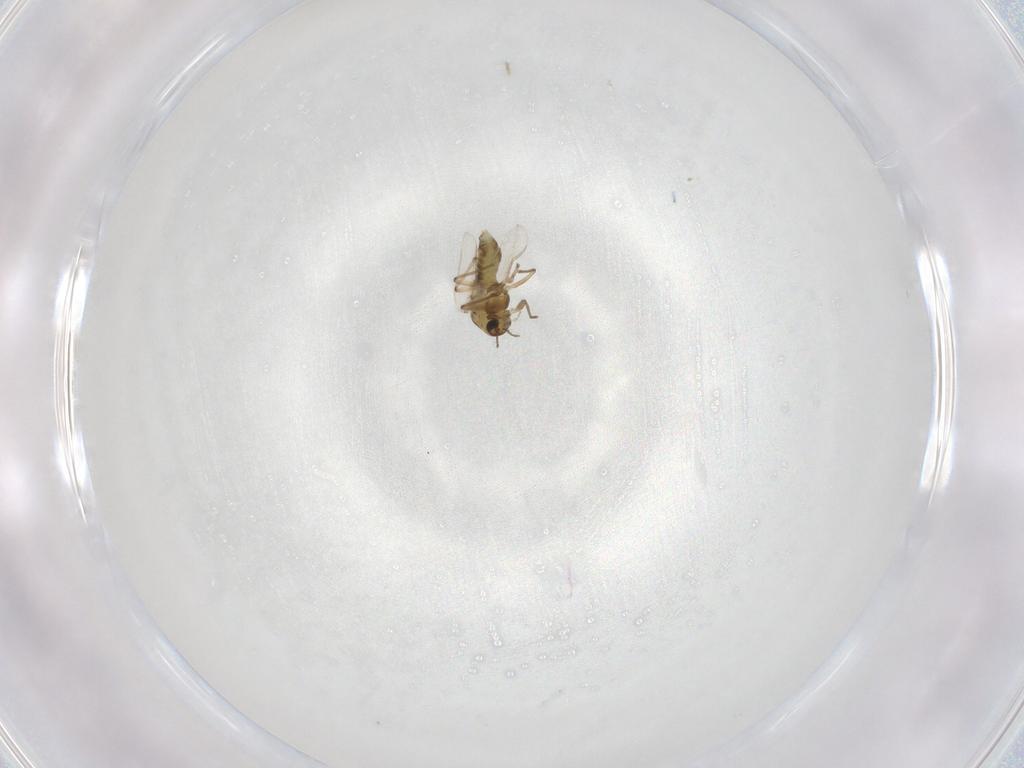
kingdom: Animalia
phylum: Arthropoda
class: Insecta
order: Diptera
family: Chironomidae
